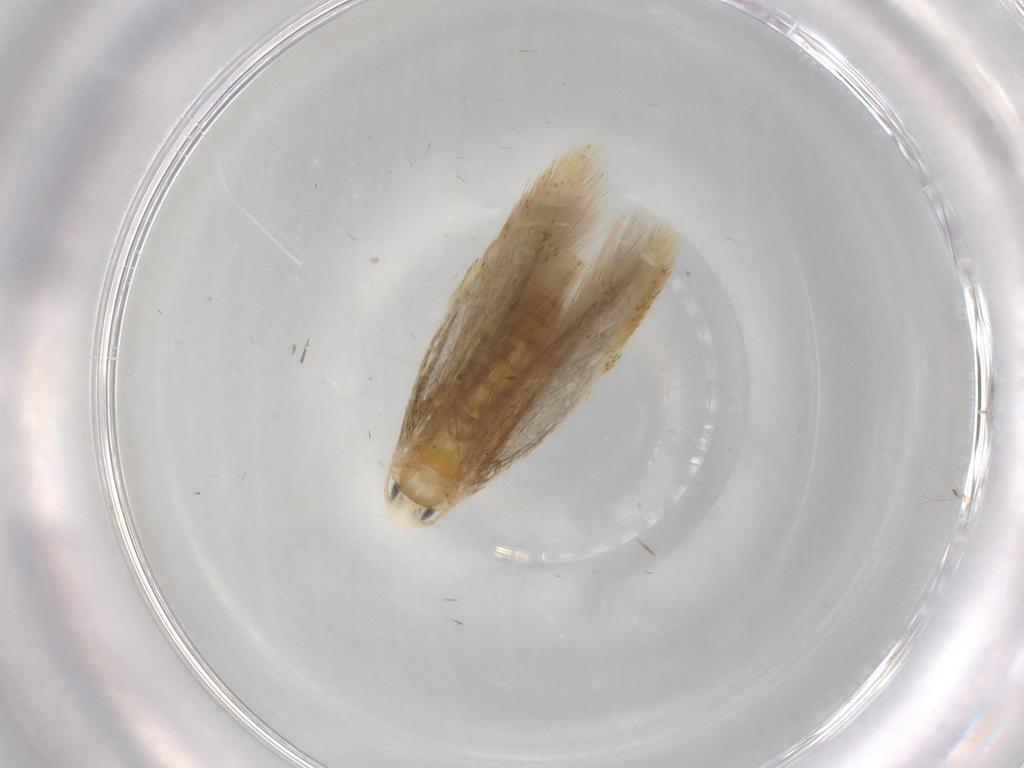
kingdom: Animalia
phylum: Arthropoda
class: Insecta
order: Lepidoptera
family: Tischeriidae
